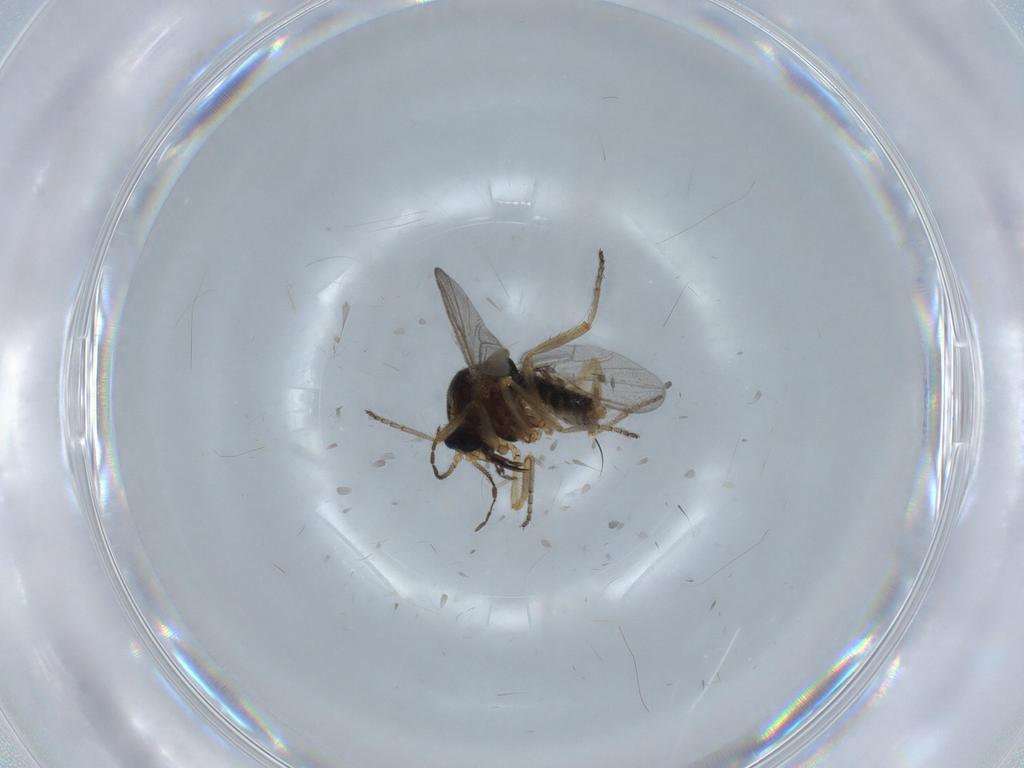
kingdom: Animalia
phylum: Arthropoda
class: Insecta
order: Diptera
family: Ceratopogonidae
